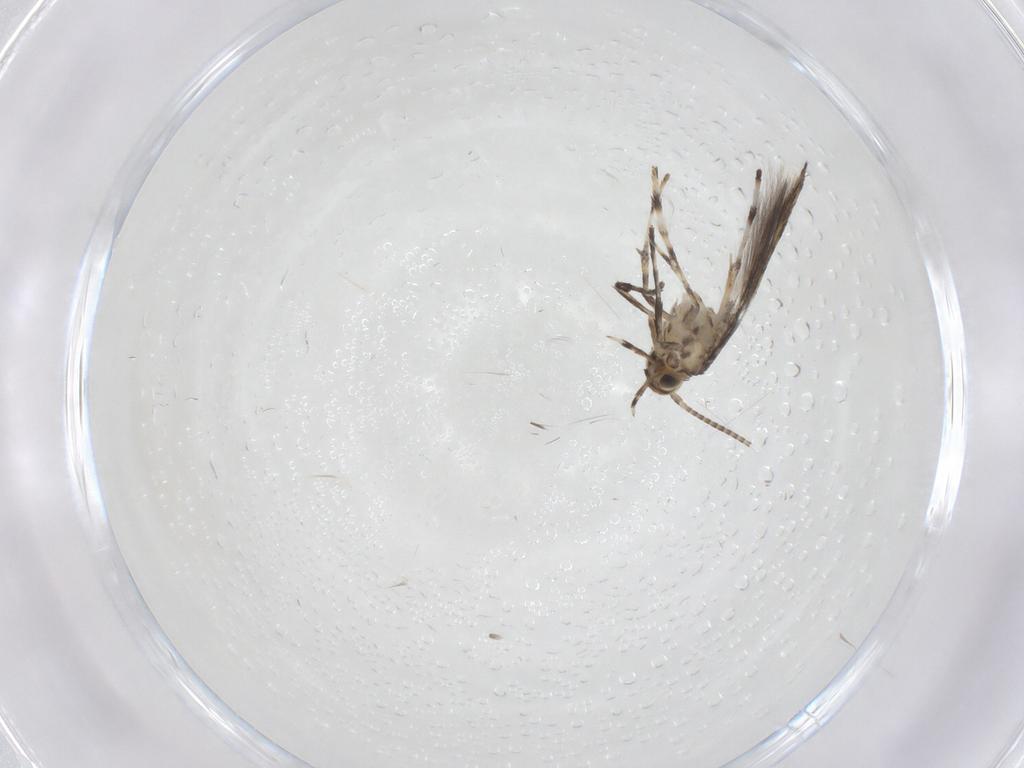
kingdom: Animalia
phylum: Arthropoda
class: Insecta
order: Lepidoptera
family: Gracillariidae
